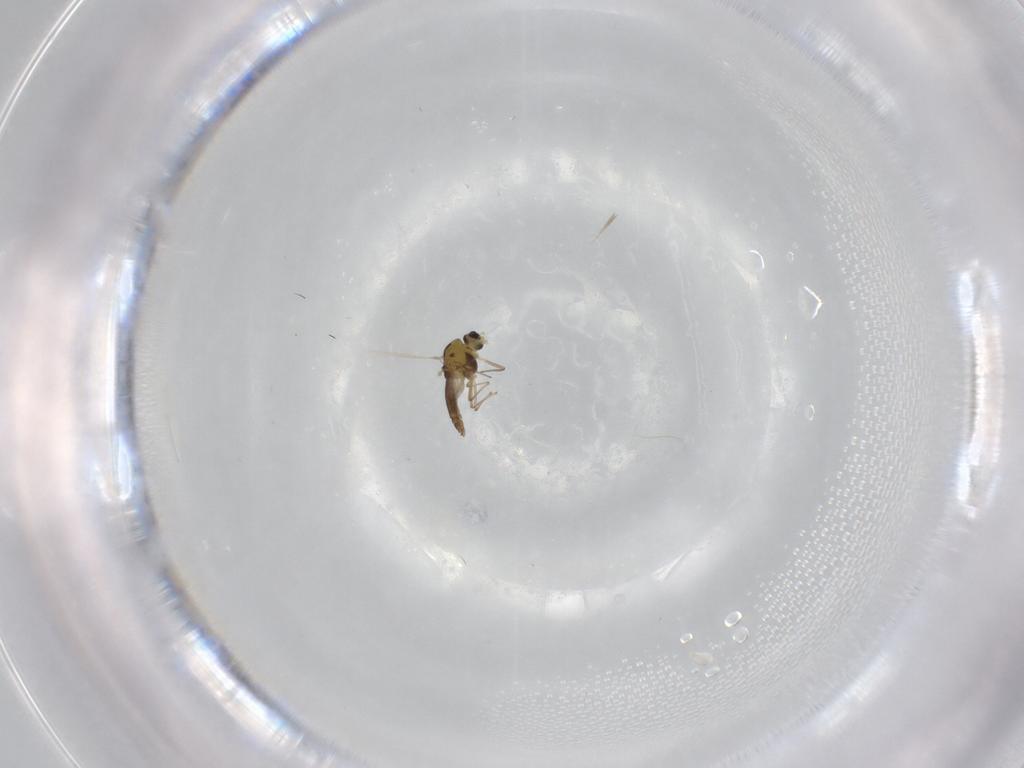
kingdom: Animalia
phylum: Arthropoda
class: Insecta
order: Diptera
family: Chironomidae
